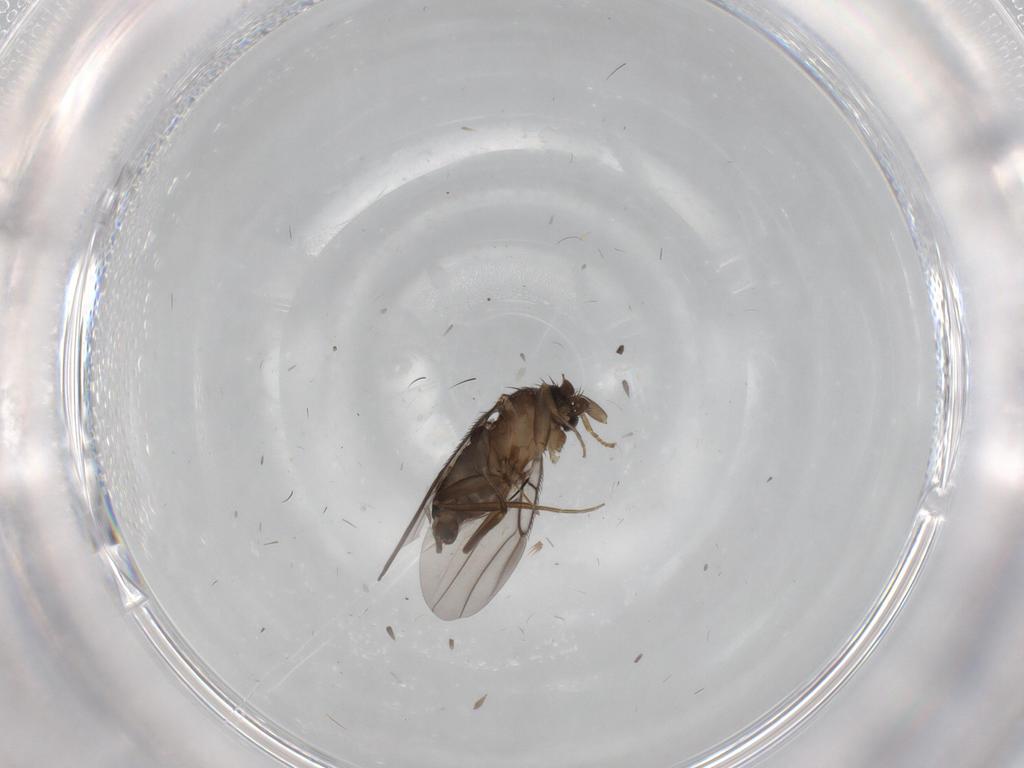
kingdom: Animalia
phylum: Arthropoda
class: Insecta
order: Diptera
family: Phoridae
